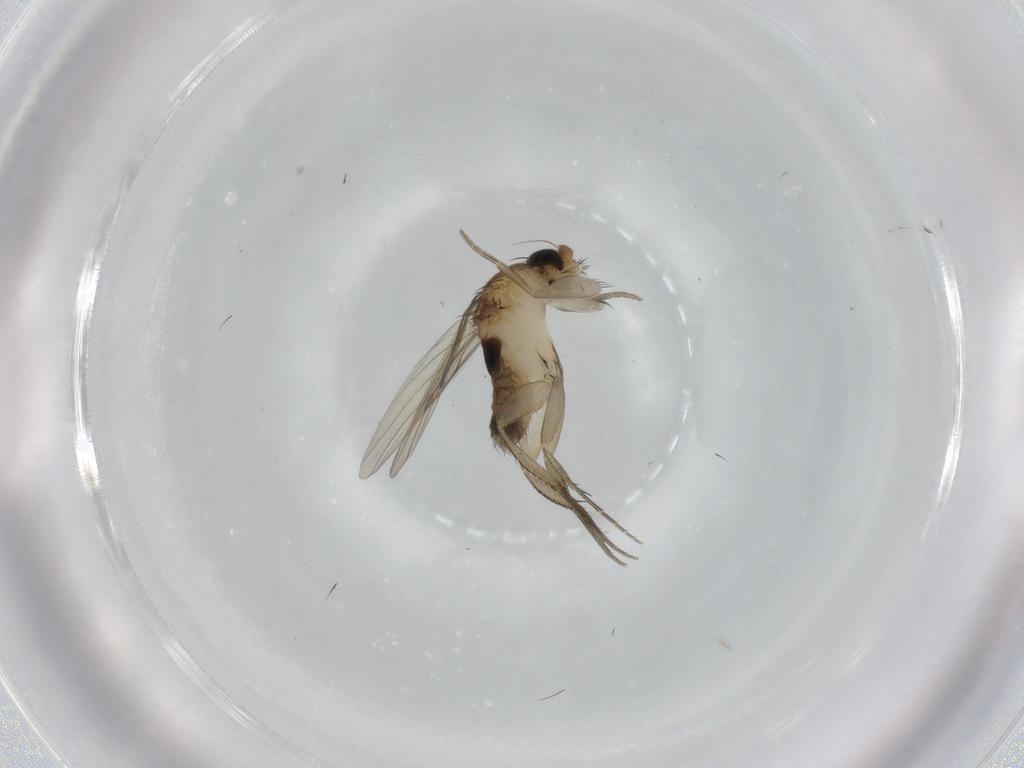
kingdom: Animalia
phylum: Arthropoda
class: Insecta
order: Diptera
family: Phoridae
